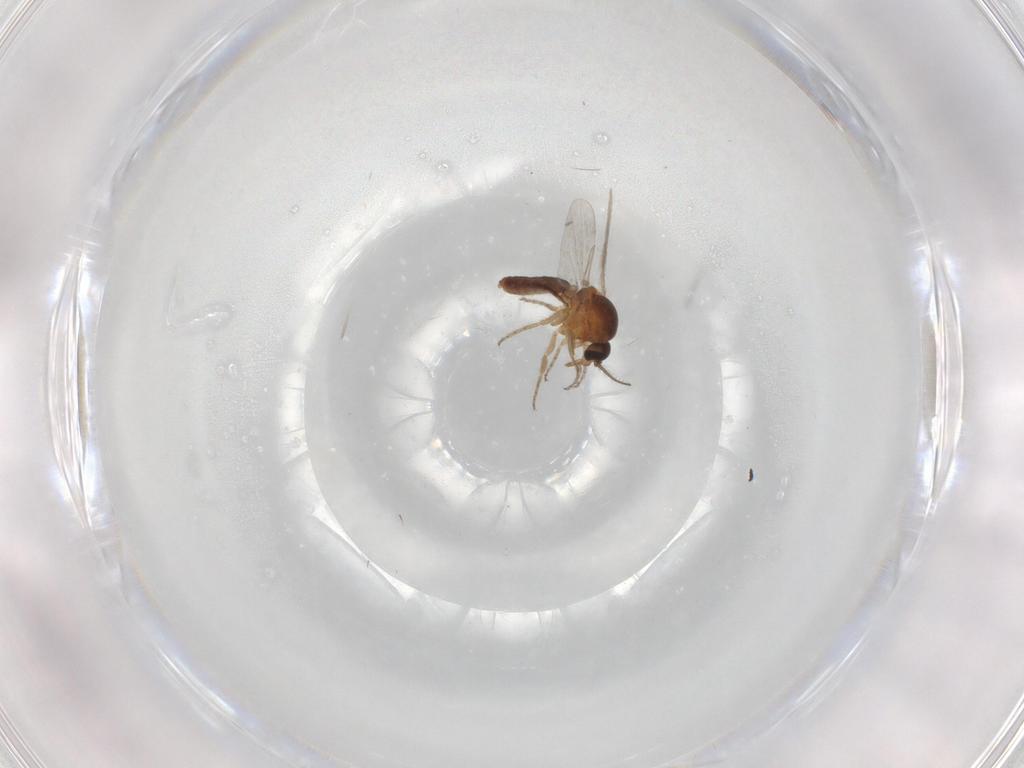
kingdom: Animalia
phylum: Arthropoda
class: Insecta
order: Diptera
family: Ceratopogonidae
